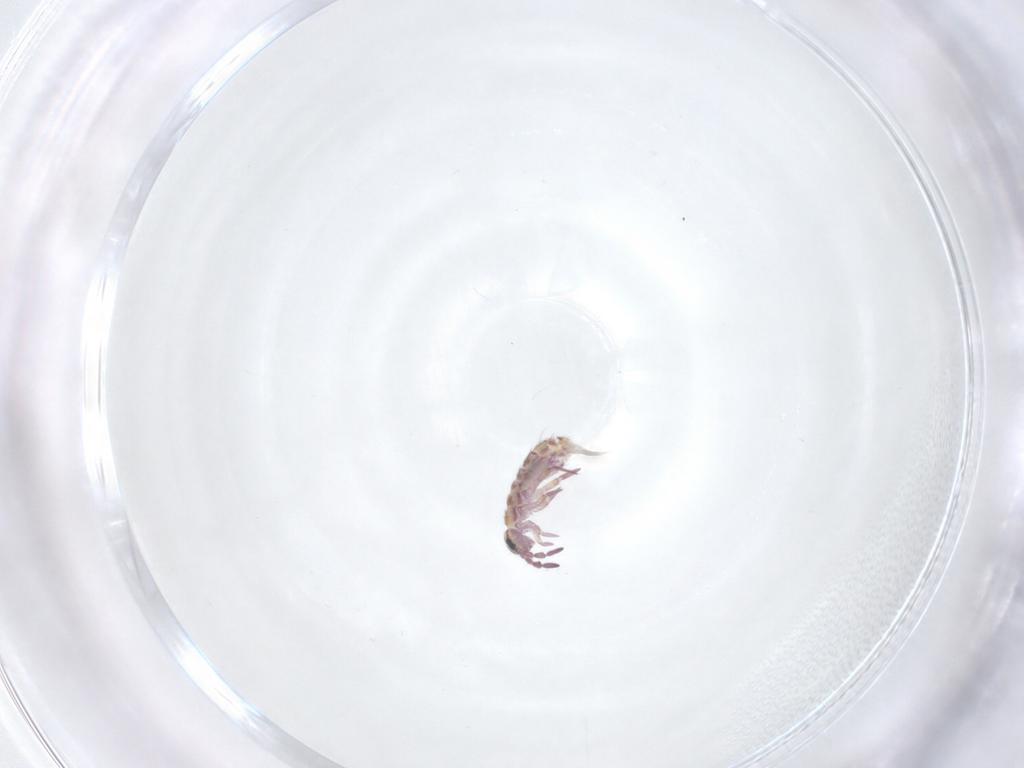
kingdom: Animalia
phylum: Arthropoda
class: Collembola
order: Entomobryomorpha
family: Isotomidae
